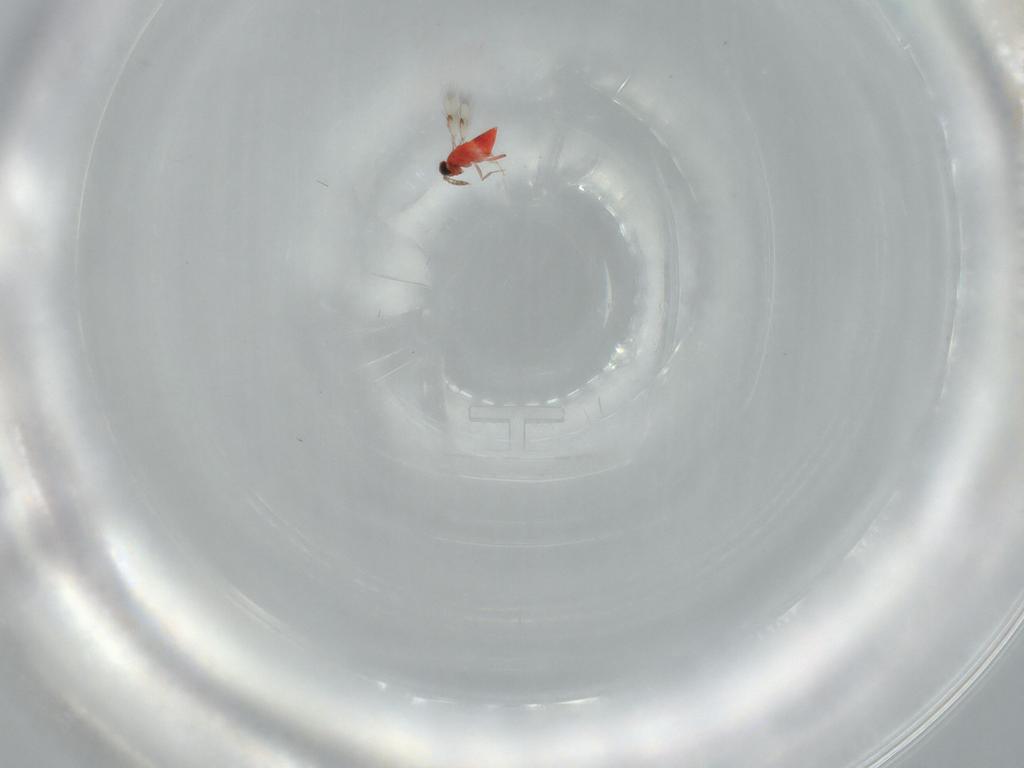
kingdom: Animalia
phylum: Arthropoda
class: Insecta
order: Hymenoptera
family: Trichogrammatidae
